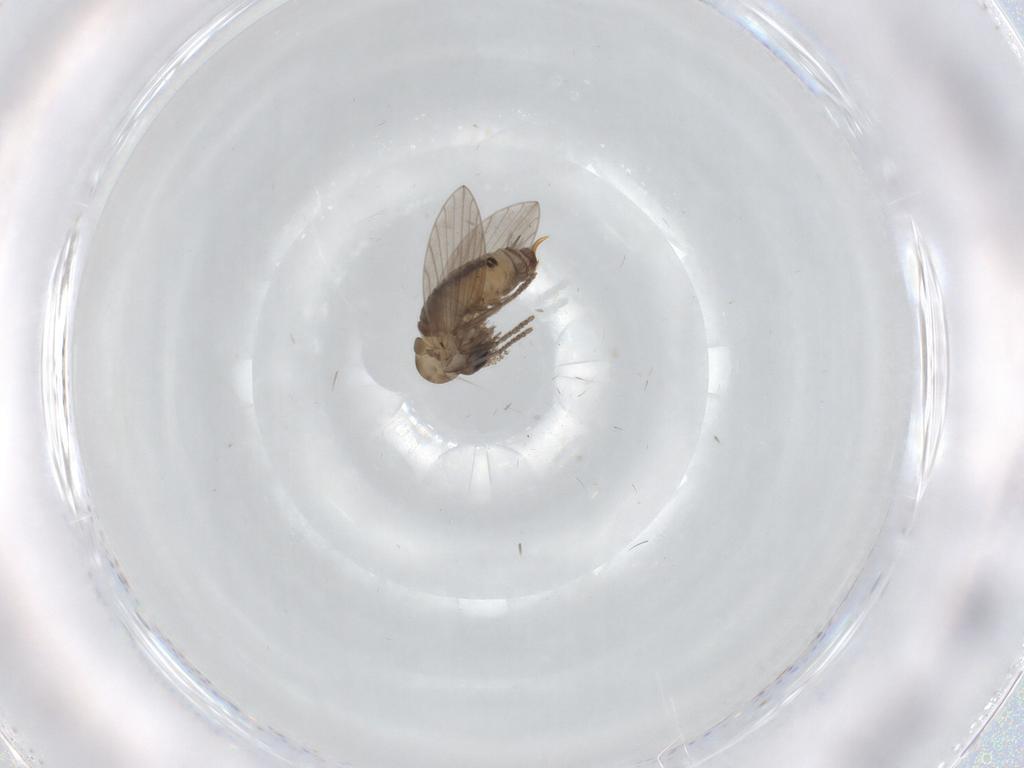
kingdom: Animalia
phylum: Arthropoda
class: Insecta
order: Diptera
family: Psychodidae
